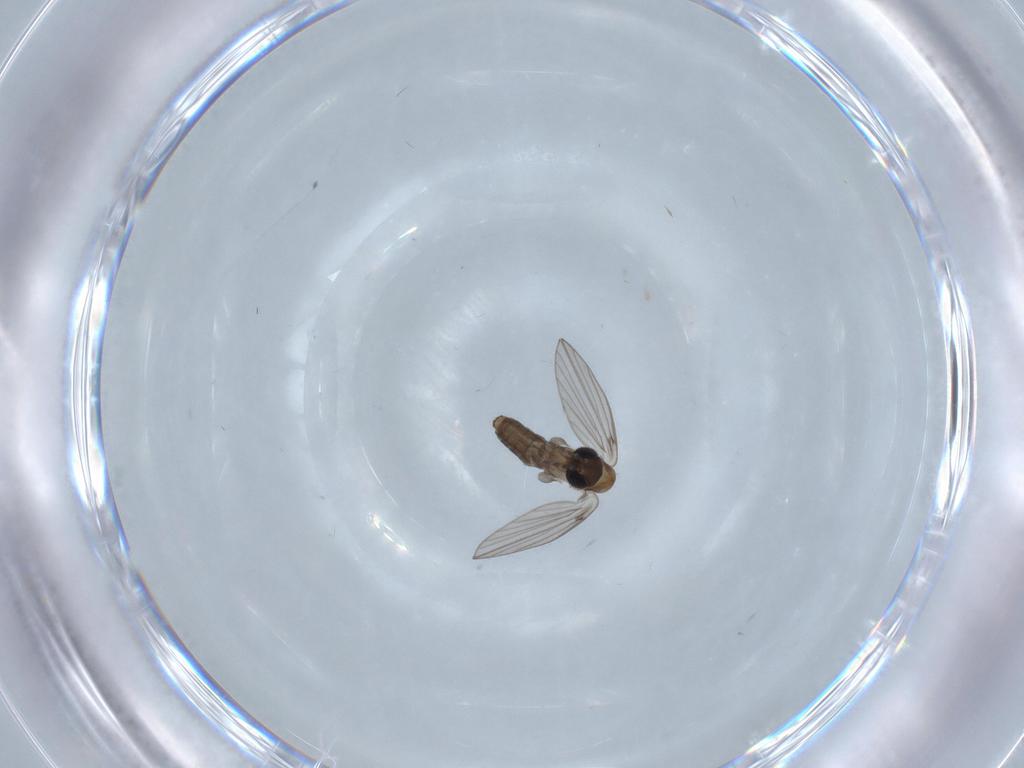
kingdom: Animalia
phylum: Arthropoda
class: Insecta
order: Diptera
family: Psychodidae
